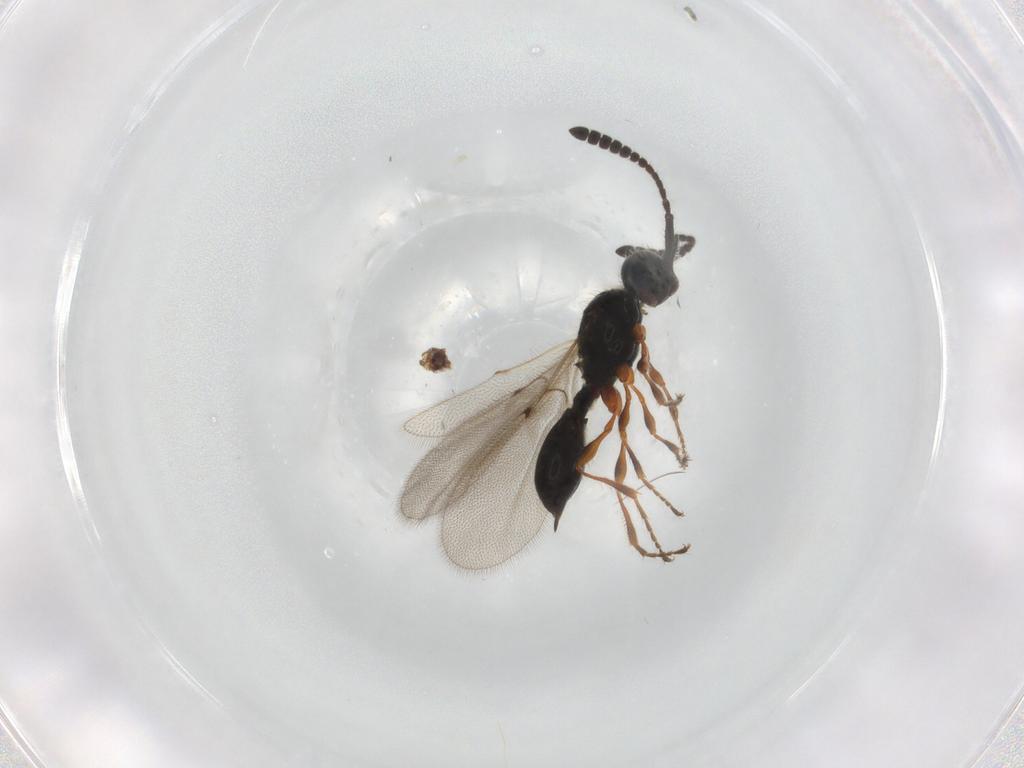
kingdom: Animalia
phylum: Arthropoda
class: Insecta
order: Hymenoptera
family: Diapriidae
